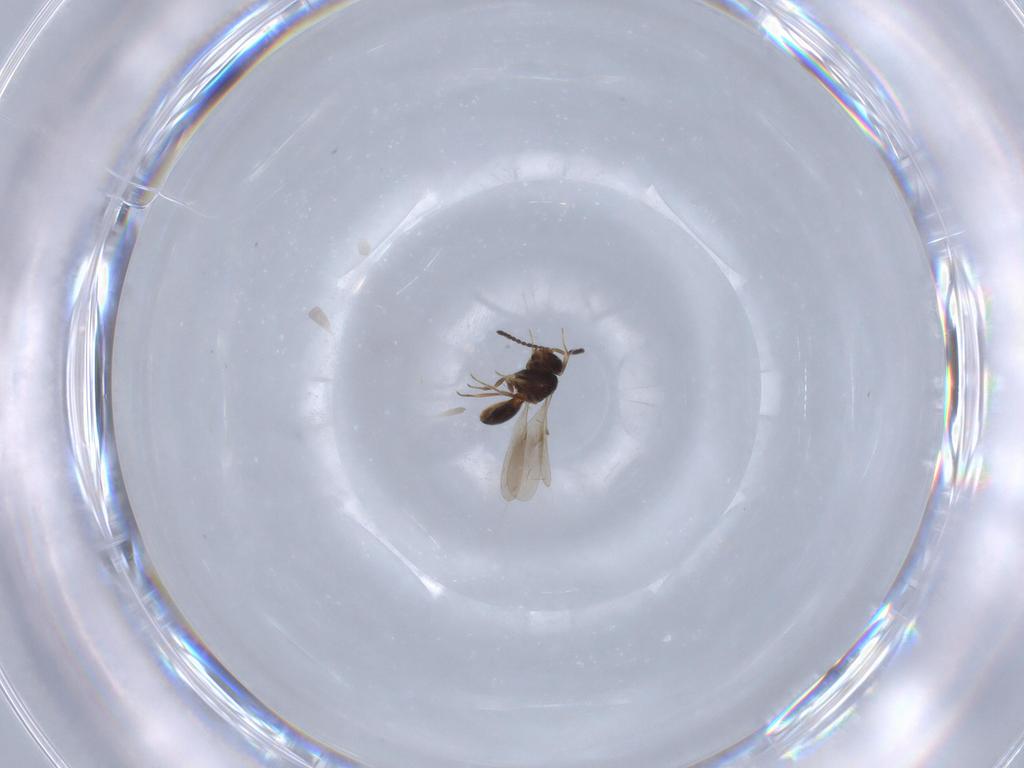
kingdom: Animalia
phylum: Arthropoda
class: Insecta
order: Hymenoptera
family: Scelionidae
